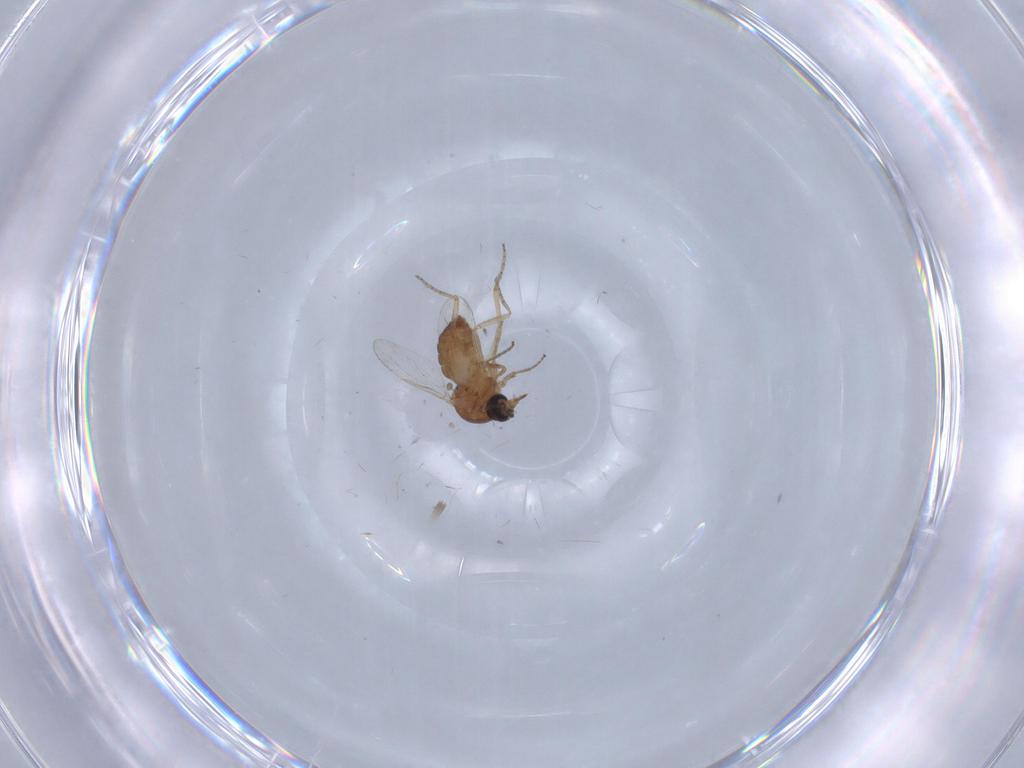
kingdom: Animalia
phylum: Arthropoda
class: Insecta
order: Diptera
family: Ceratopogonidae
